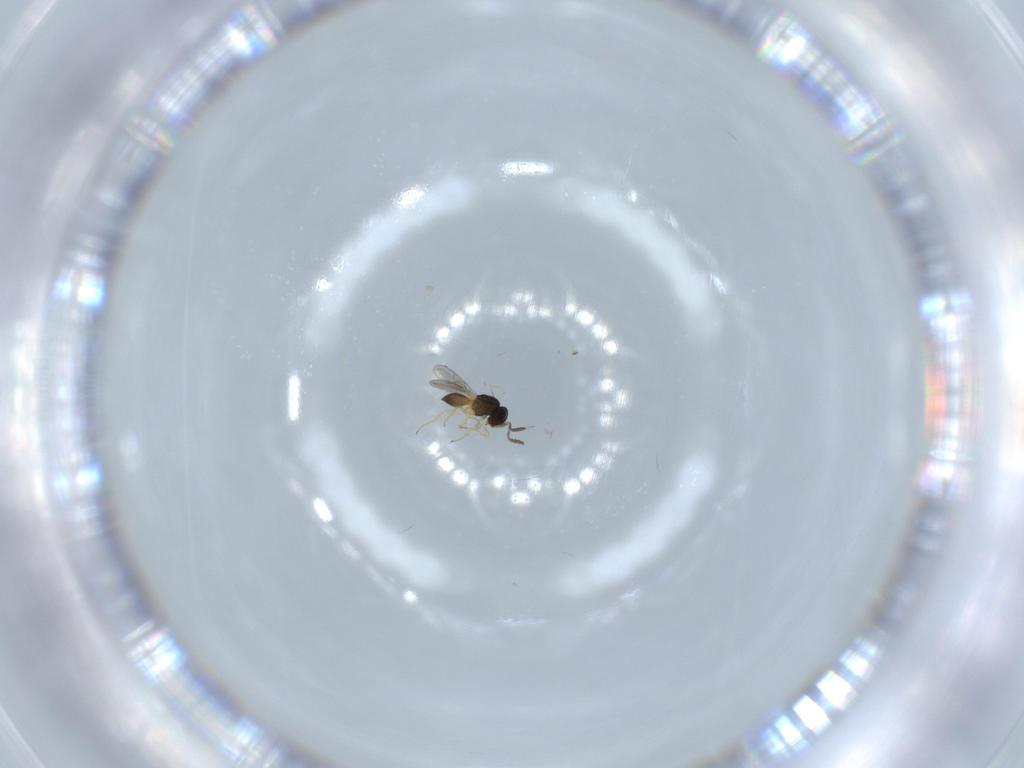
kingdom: Animalia
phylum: Arthropoda
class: Insecta
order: Hymenoptera
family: Scelionidae
